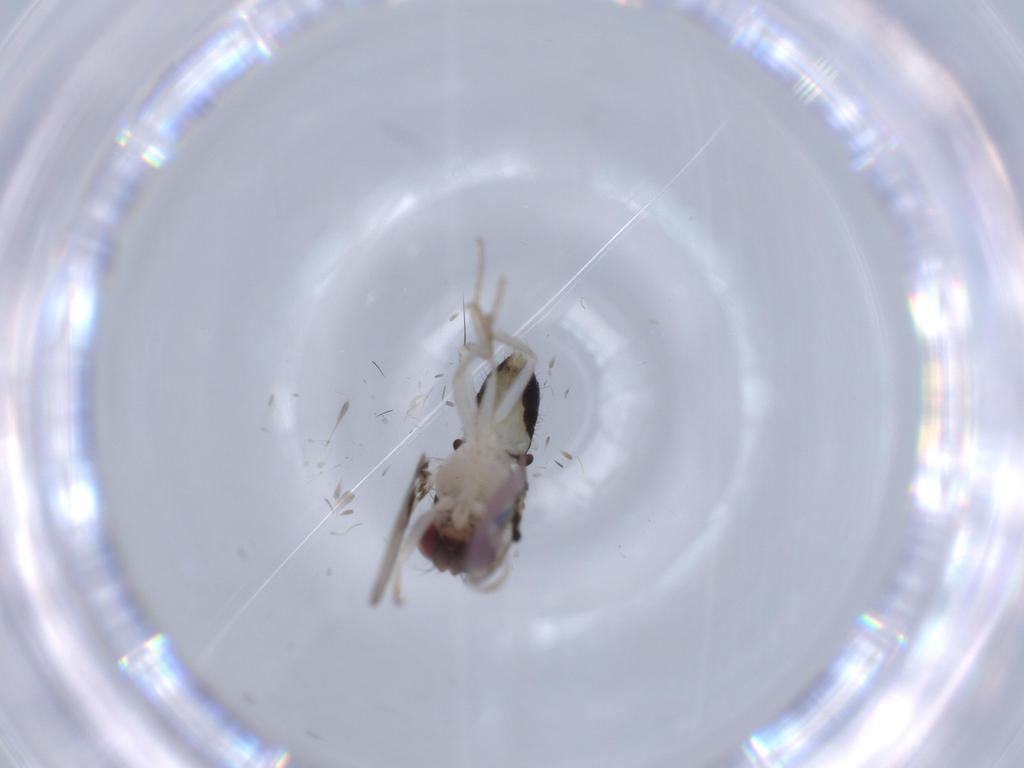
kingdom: Animalia
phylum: Arthropoda
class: Insecta
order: Diptera
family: Drosophilidae
